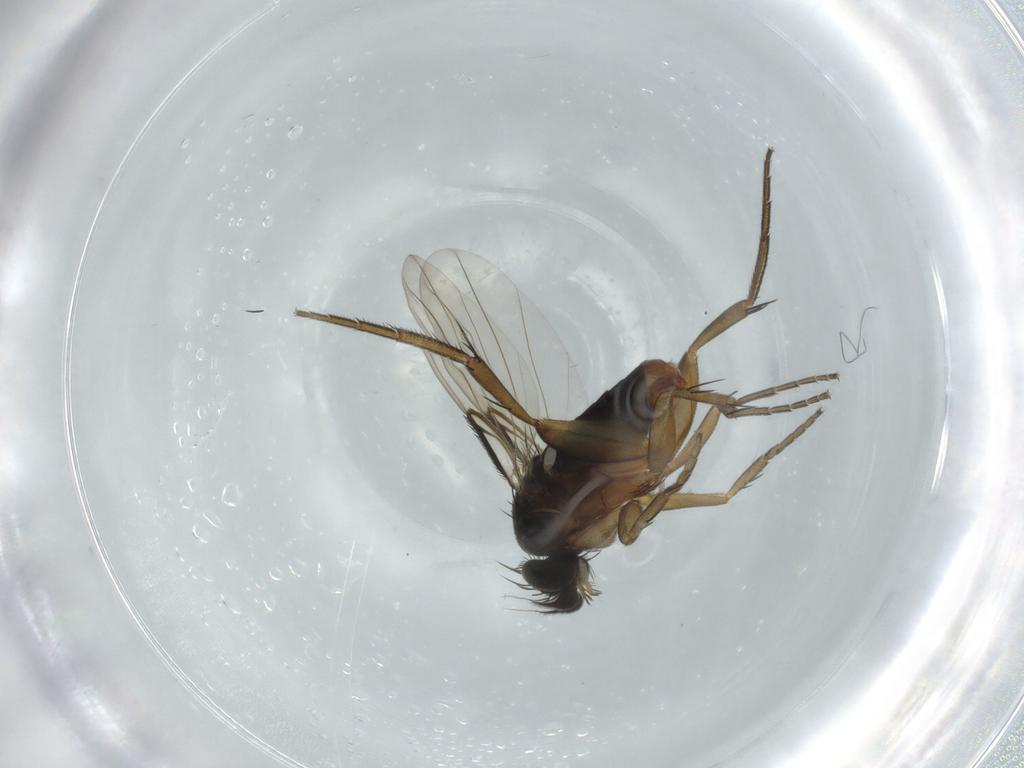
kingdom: Animalia
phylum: Arthropoda
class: Insecta
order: Diptera
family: Phoridae
